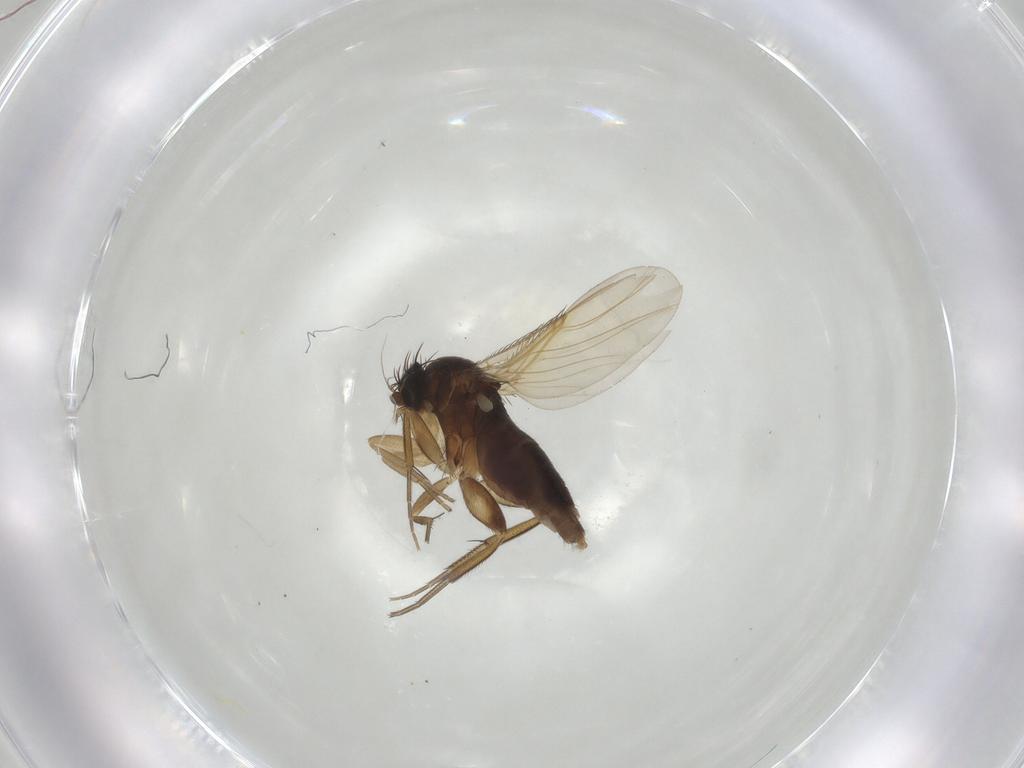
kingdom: Animalia
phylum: Arthropoda
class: Insecta
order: Diptera
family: Phoridae
